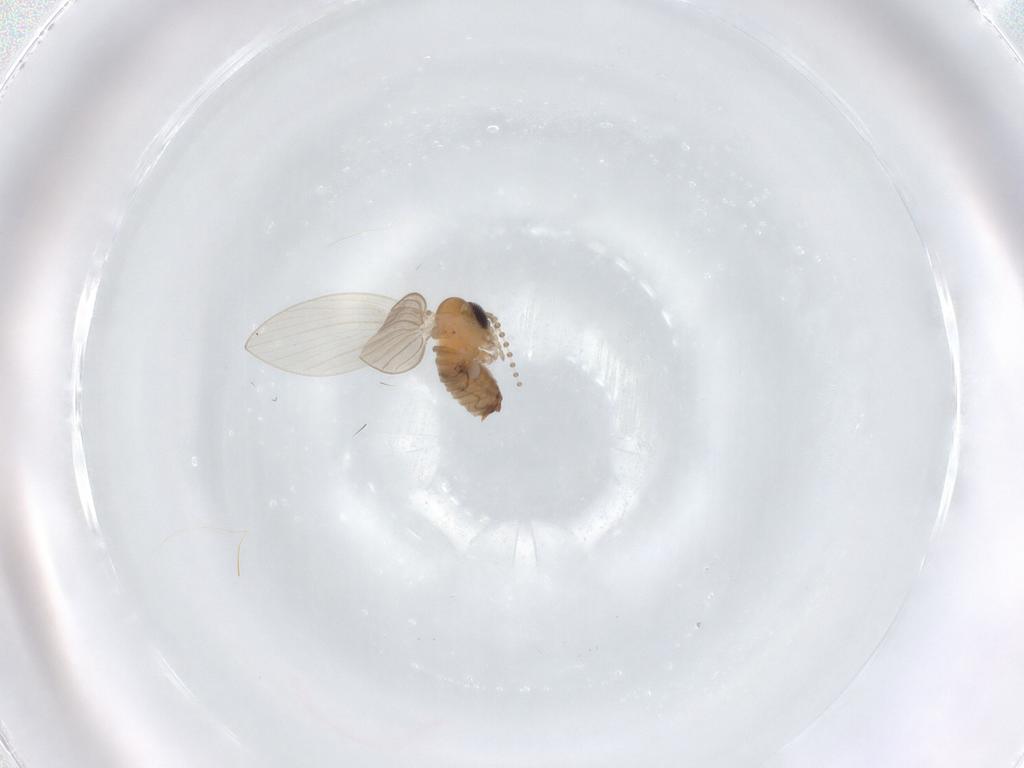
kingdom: Animalia
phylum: Arthropoda
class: Insecta
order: Diptera
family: Psychodidae
